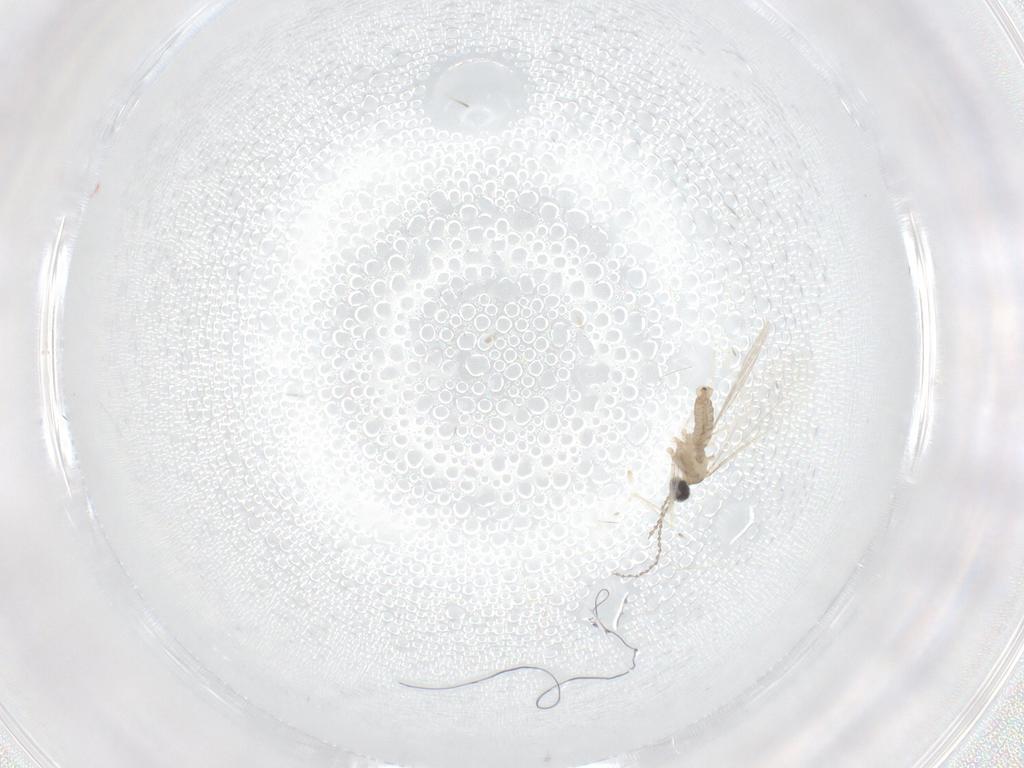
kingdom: Animalia
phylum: Arthropoda
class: Insecta
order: Diptera
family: Cecidomyiidae
